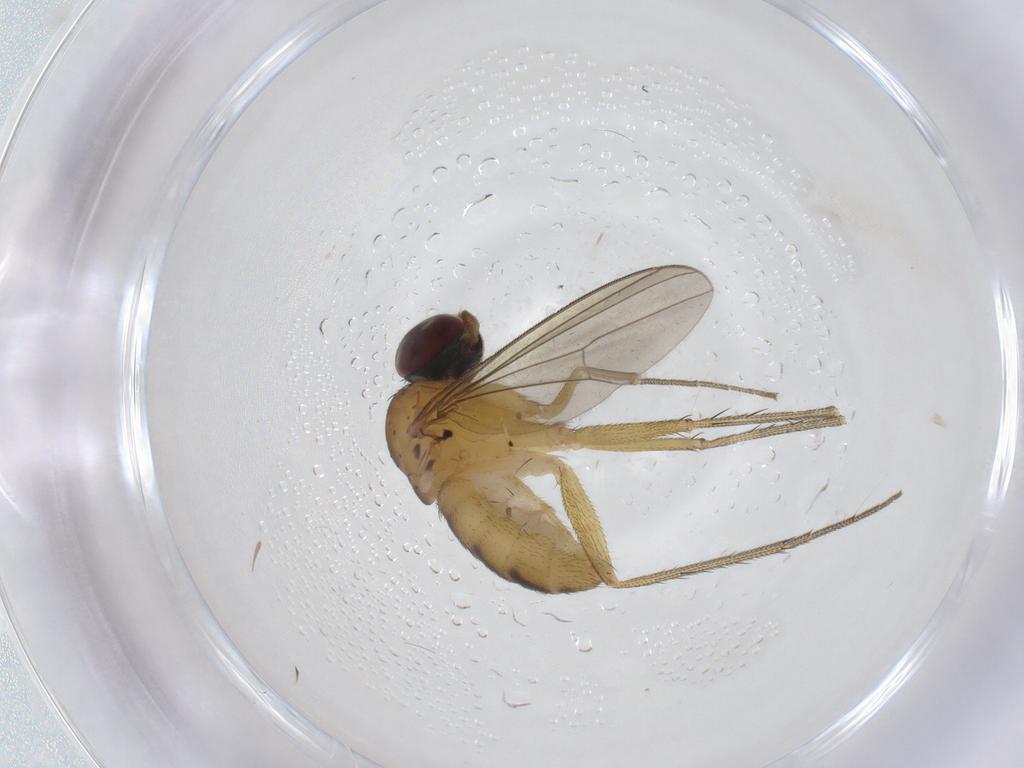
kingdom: Animalia
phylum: Arthropoda
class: Insecta
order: Diptera
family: Dolichopodidae
